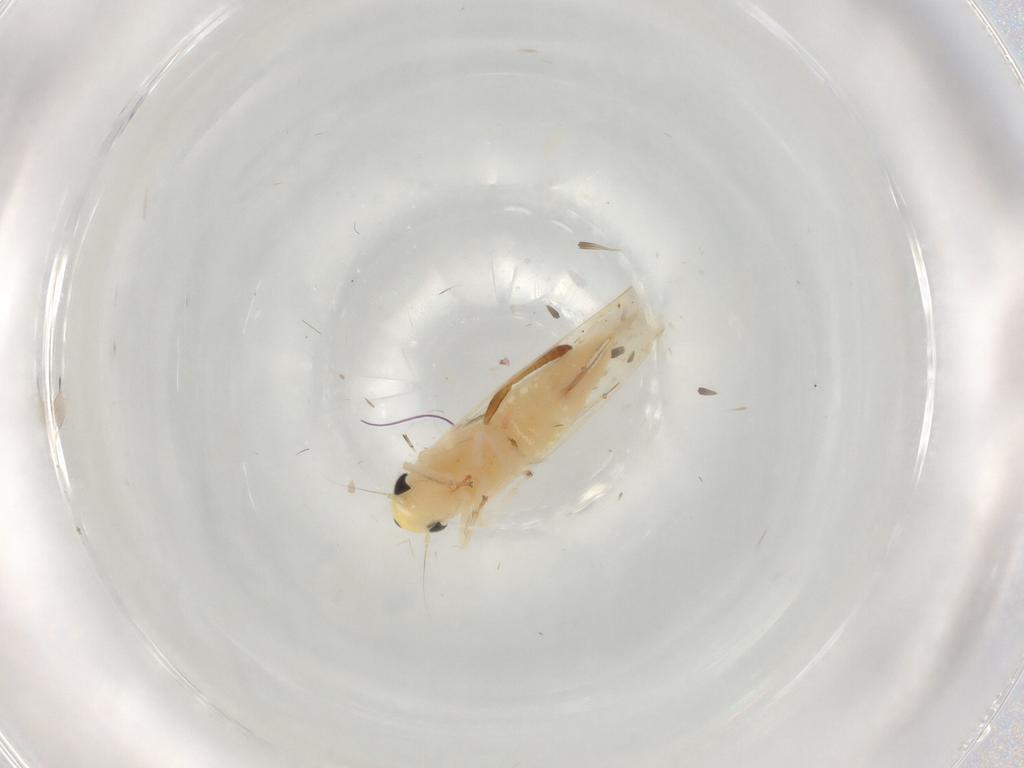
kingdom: Animalia
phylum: Arthropoda
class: Insecta
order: Hemiptera
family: Cicadellidae
